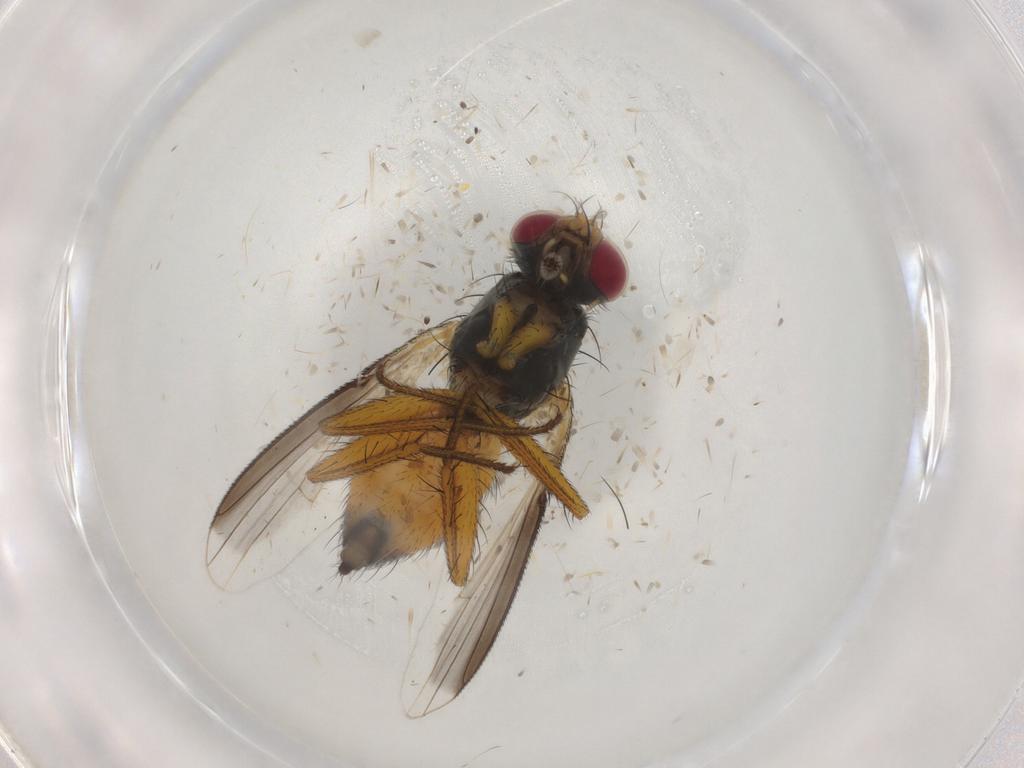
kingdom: Animalia
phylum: Arthropoda
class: Insecta
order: Diptera
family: Muscidae
